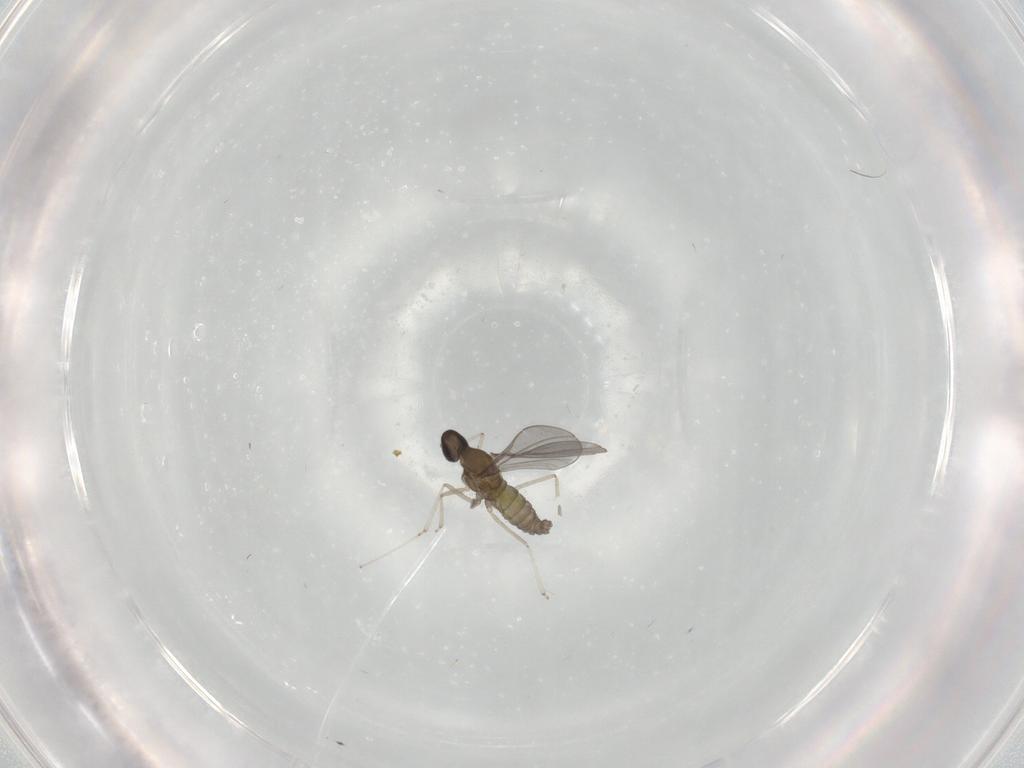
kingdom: Animalia
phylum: Arthropoda
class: Insecta
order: Diptera
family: Cecidomyiidae
